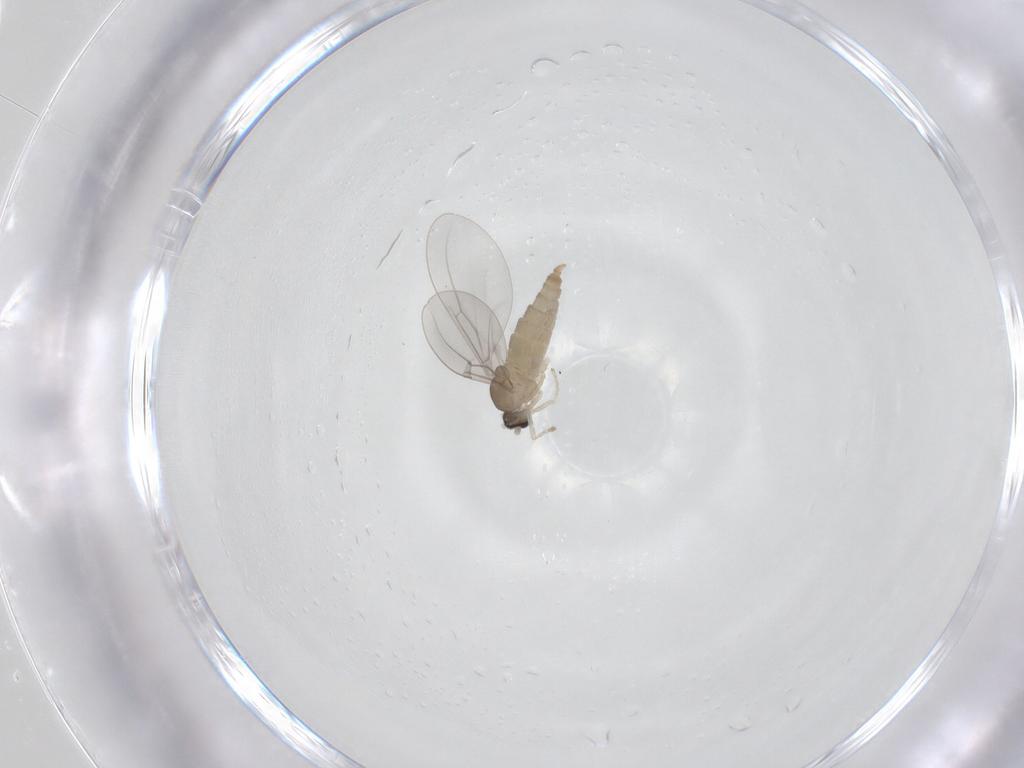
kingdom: Animalia
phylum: Arthropoda
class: Insecta
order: Diptera
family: Cecidomyiidae
